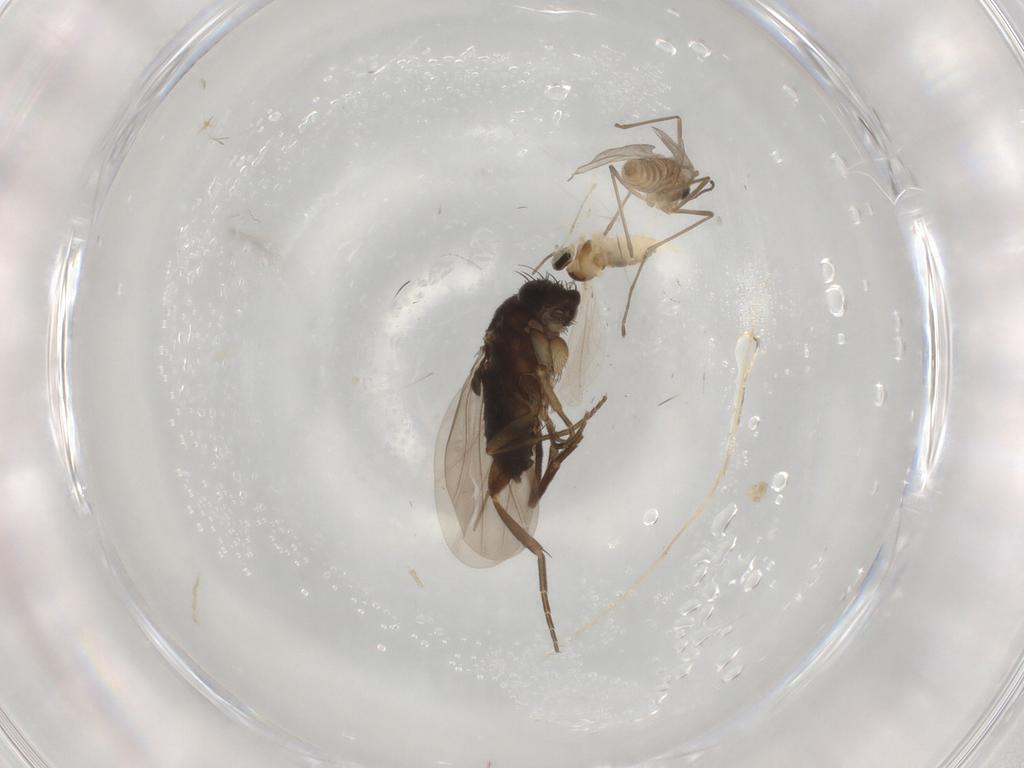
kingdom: Animalia
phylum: Arthropoda
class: Insecta
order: Diptera
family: Phoridae
